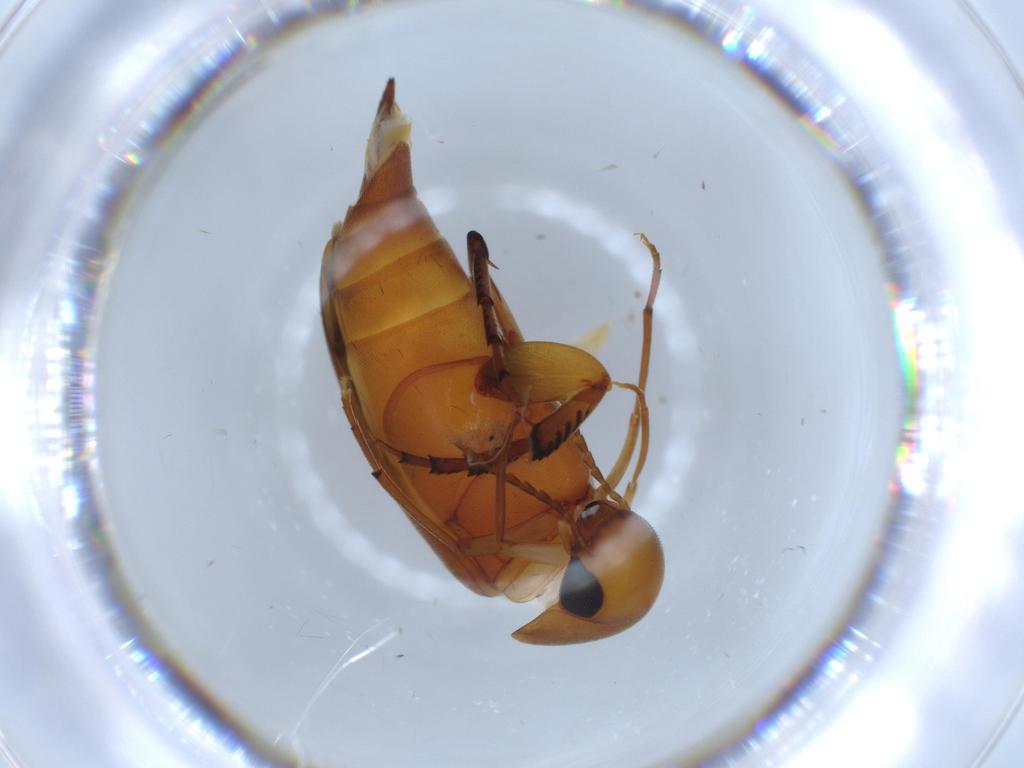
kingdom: Animalia
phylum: Arthropoda
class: Insecta
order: Coleoptera
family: Mordellidae
